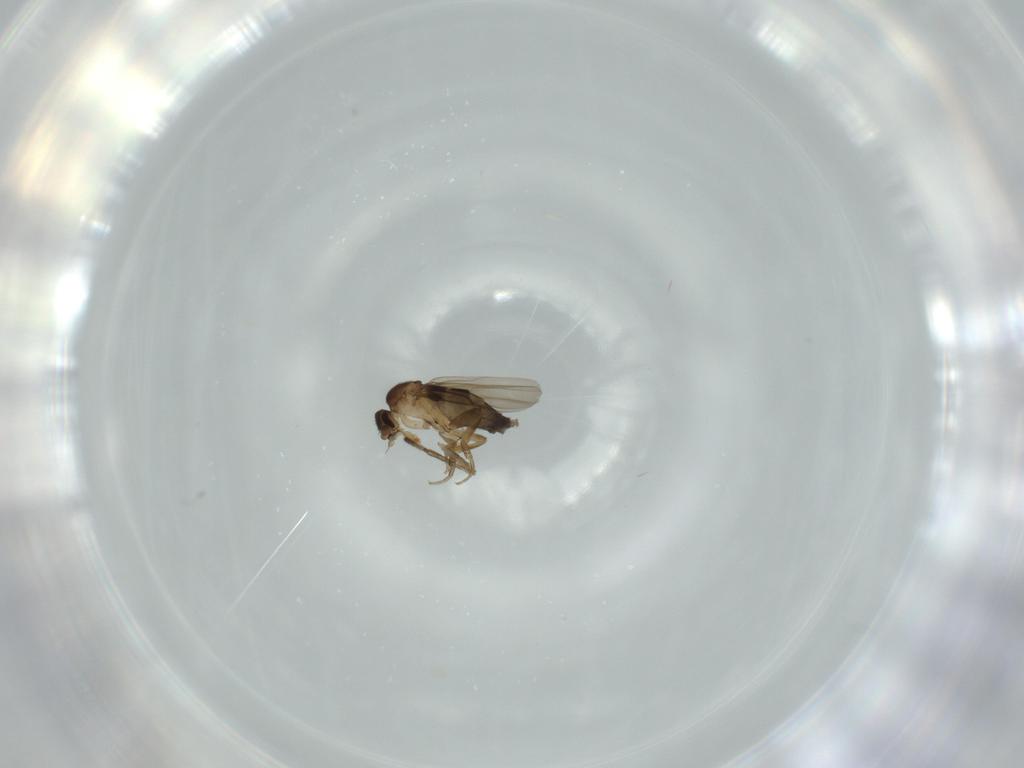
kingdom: Animalia
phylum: Arthropoda
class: Insecta
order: Diptera
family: Phoridae
